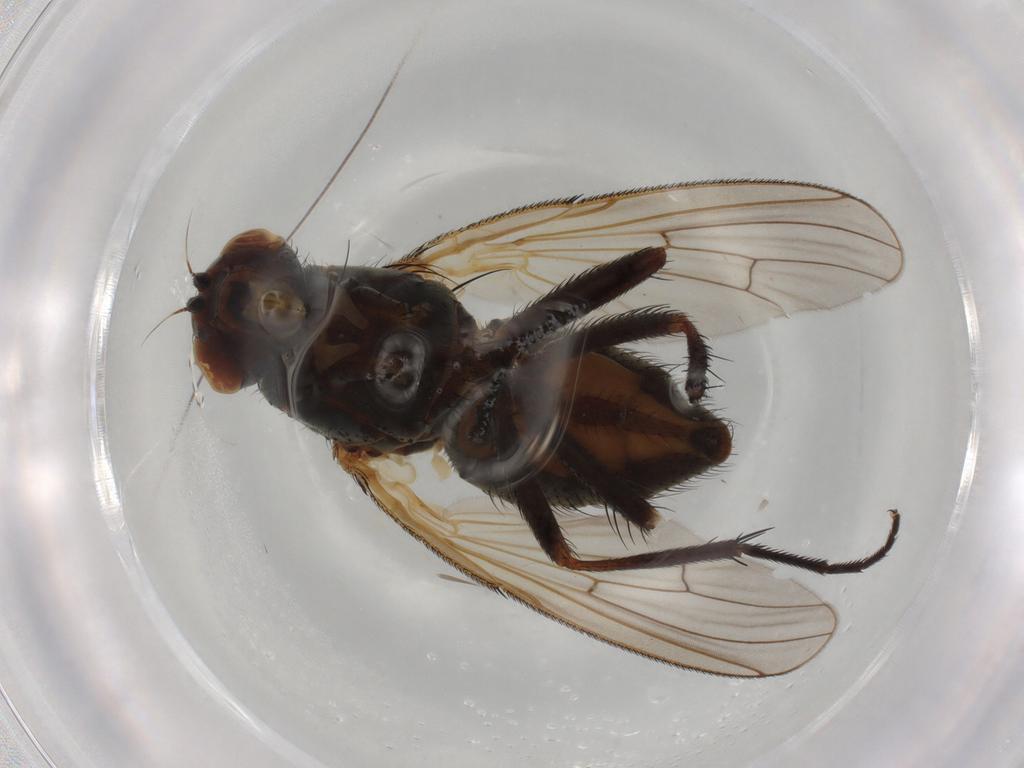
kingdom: Animalia
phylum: Arthropoda
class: Insecta
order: Diptera
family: Anthomyiidae
